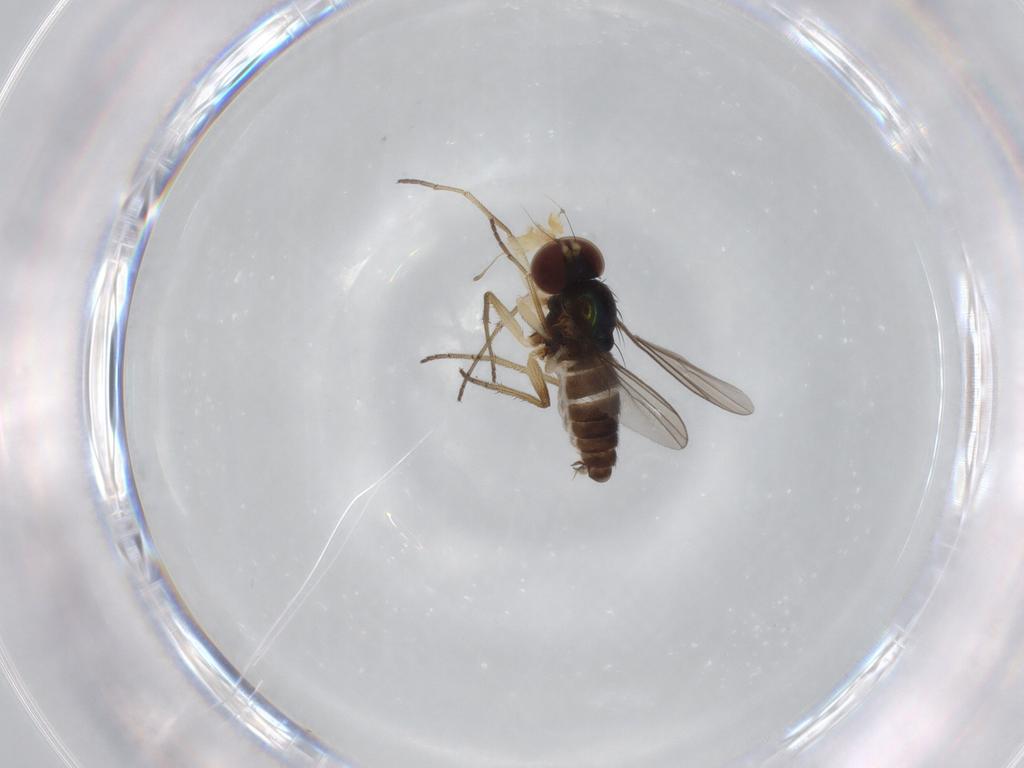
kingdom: Animalia
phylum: Arthropoda
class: Insecta
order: Diptera
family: Dolichopodidae
